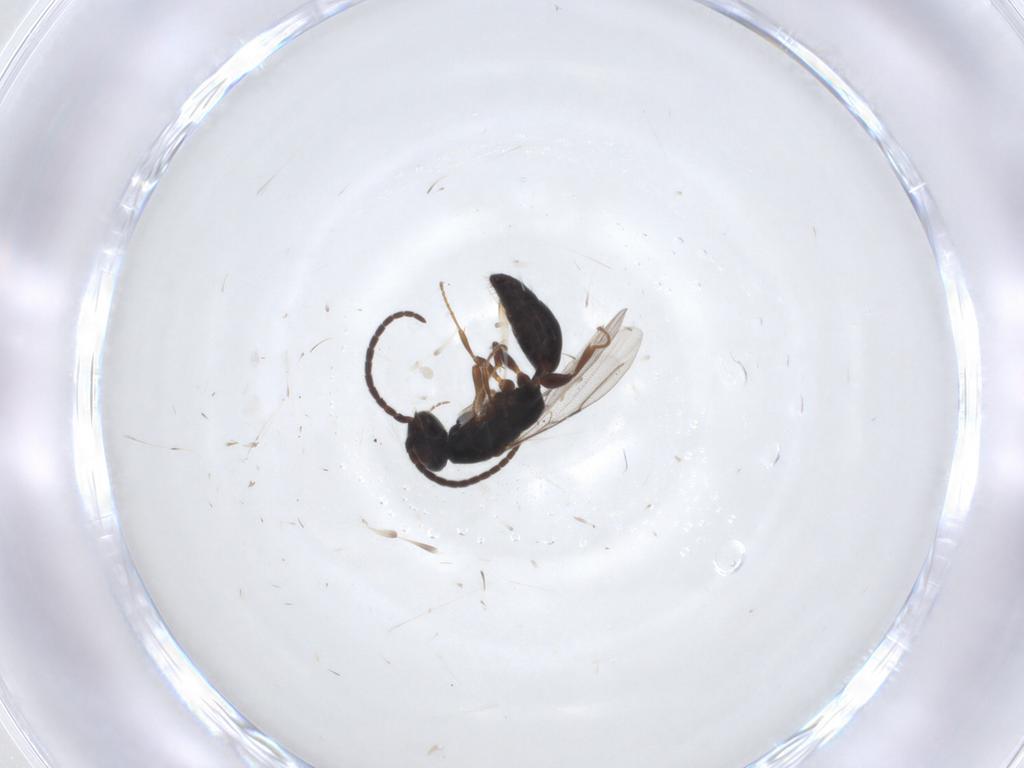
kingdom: Animalia
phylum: Arthropoda
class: Insecta
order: Hymenoptera
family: Bethylidae
